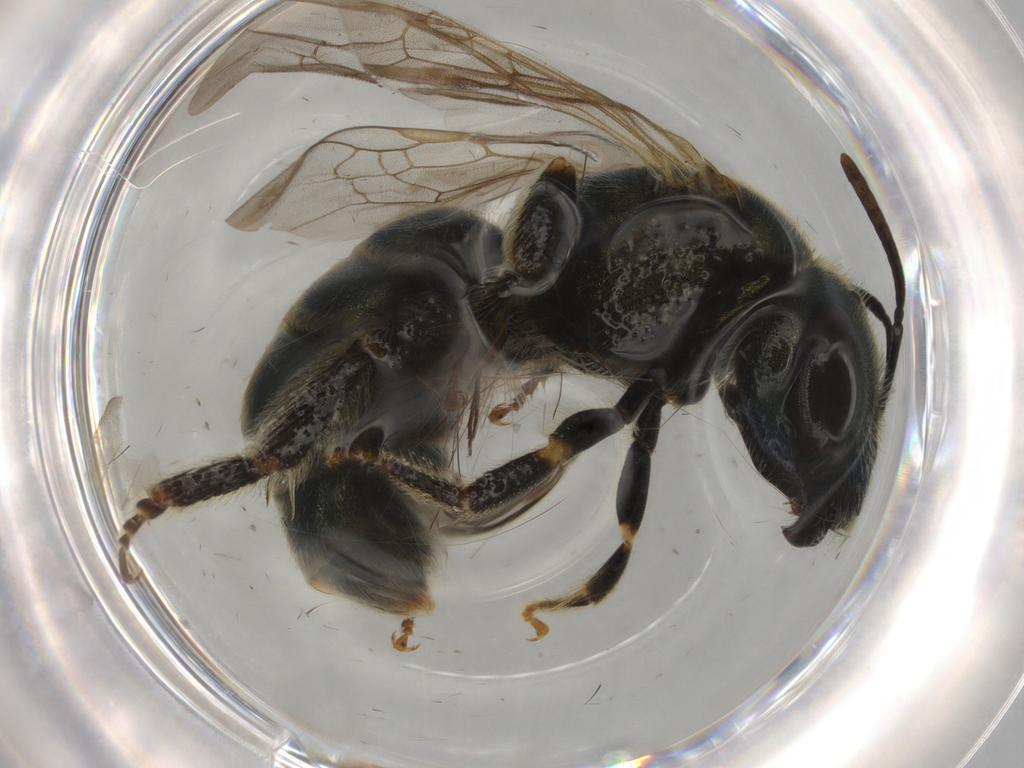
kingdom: Animalia
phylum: Arthropoda
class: Insecta
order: Hymenoptera
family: Halictidae
